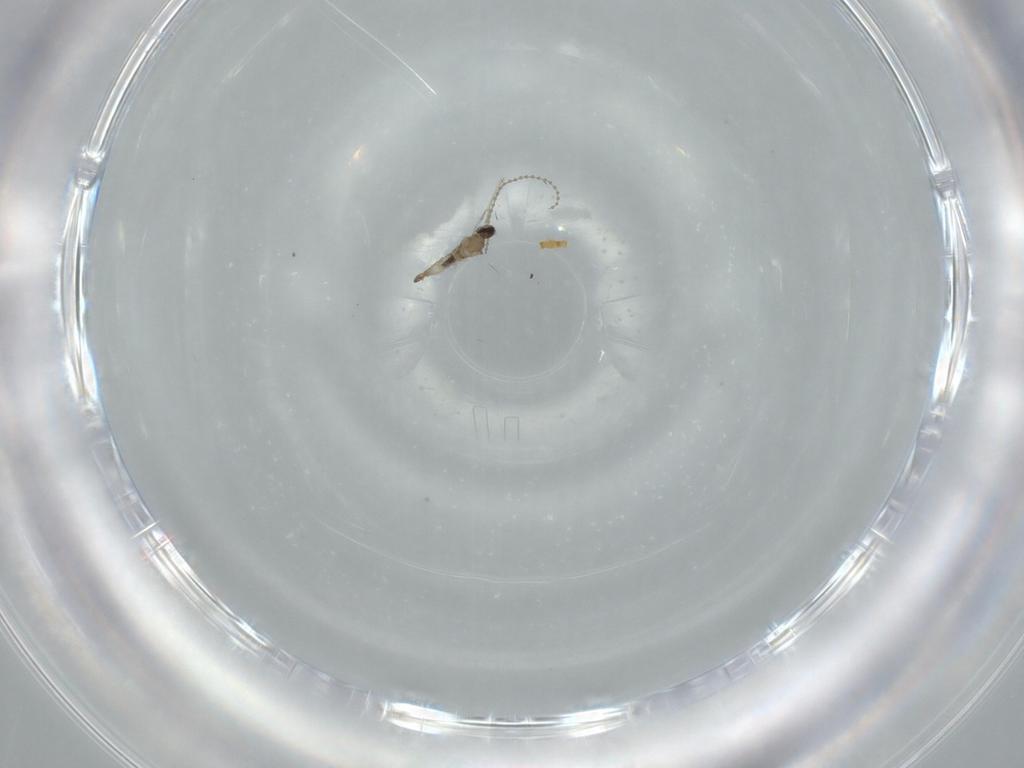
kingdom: Animalia
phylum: Arthropoda
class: Insecta
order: Diptera
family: Cecidomyiidae
